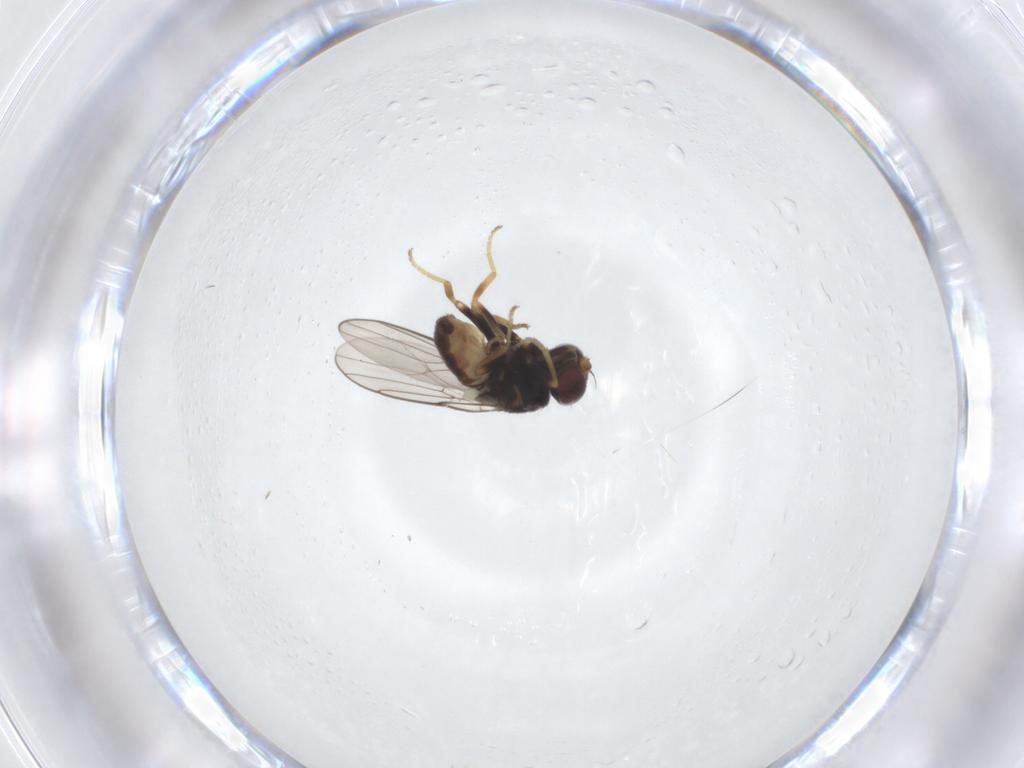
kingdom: Animalia
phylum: Arthropoda
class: Insecta
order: Diptera
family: Chloropidae
